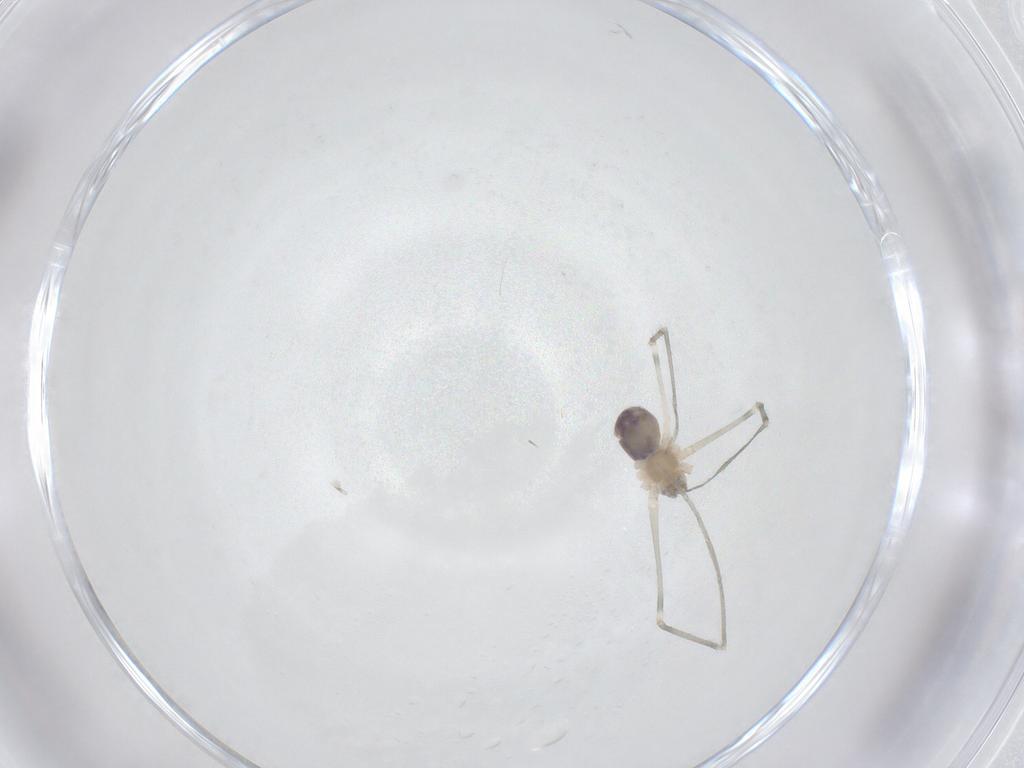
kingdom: Animalia
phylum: Arthropoda
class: Arachnida
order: Araneae
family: Pholcidae
